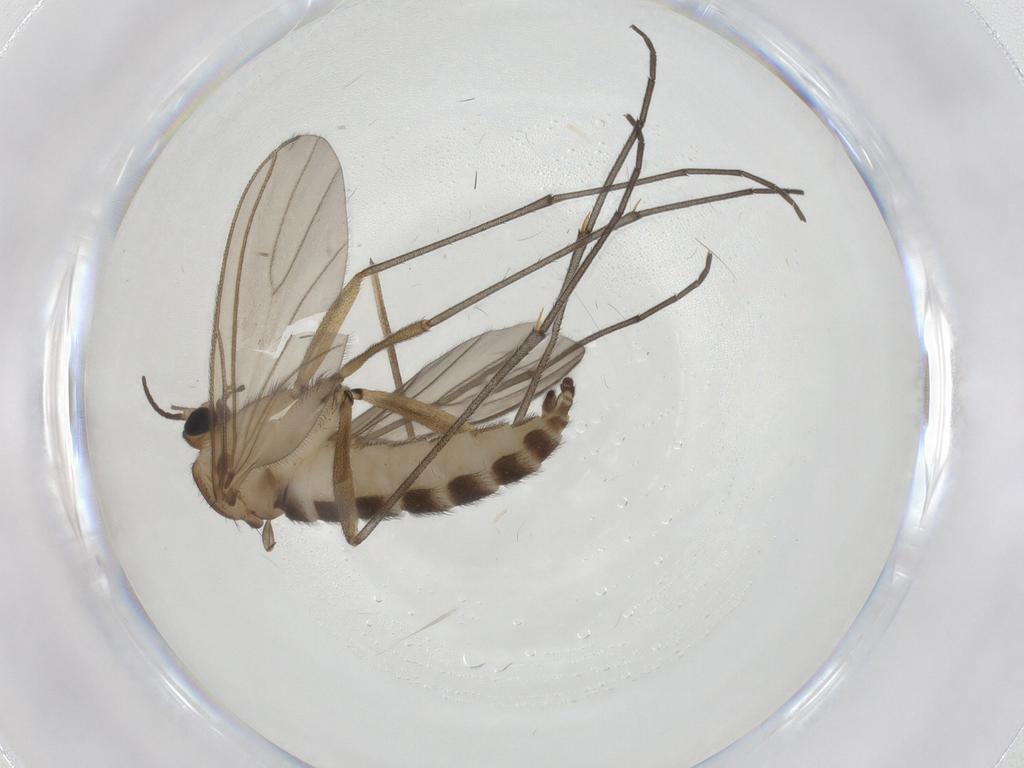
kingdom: Animalia
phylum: Arthropoda
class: Insecta
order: Diptera
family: Sciaridae
